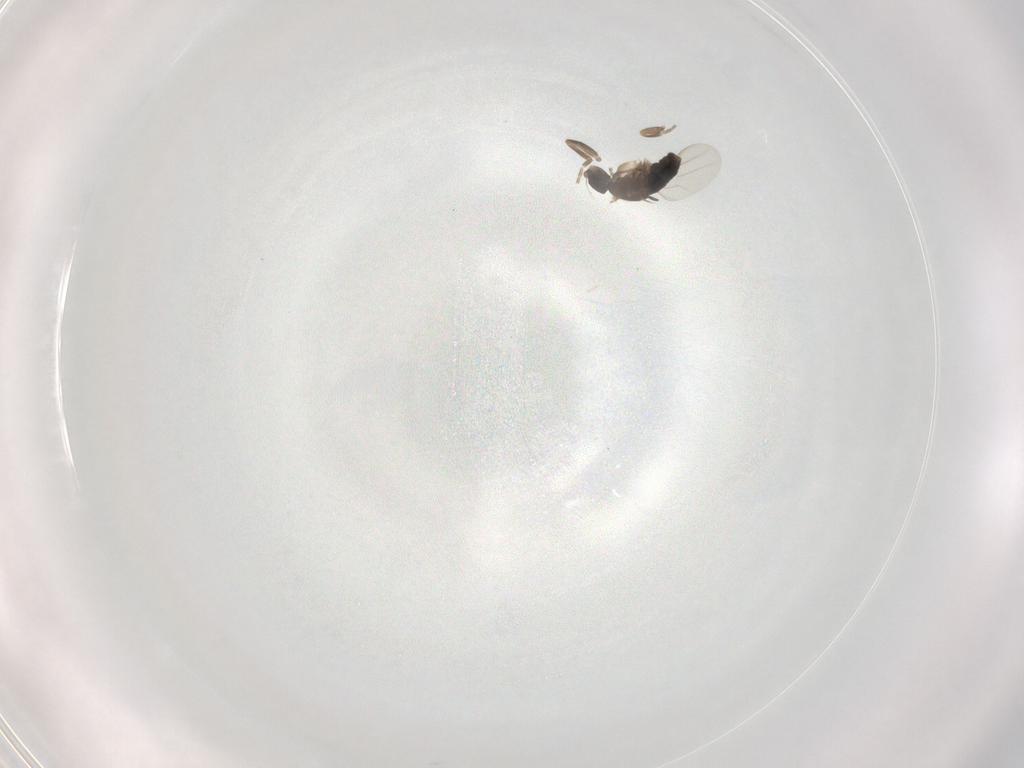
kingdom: Animalia
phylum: Arthropoda
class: Insecta
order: Diptera
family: Phoridae
